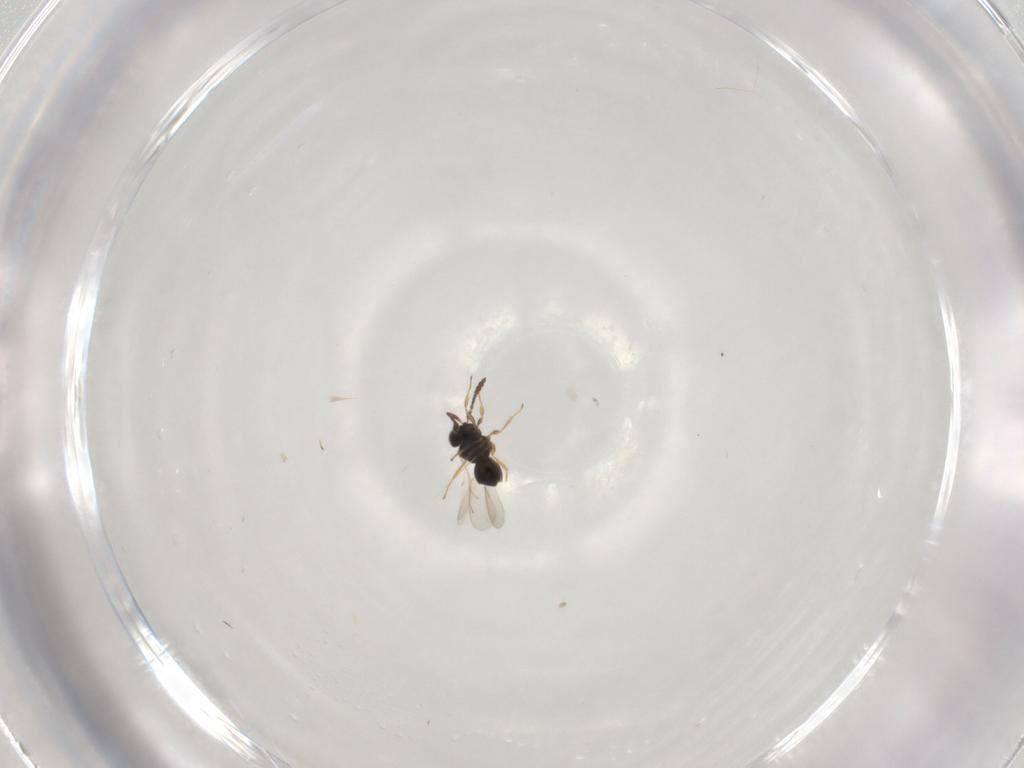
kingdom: Animalia
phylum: Arthropoda
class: Insecta
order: Hymenoptera
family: Scelionidae
